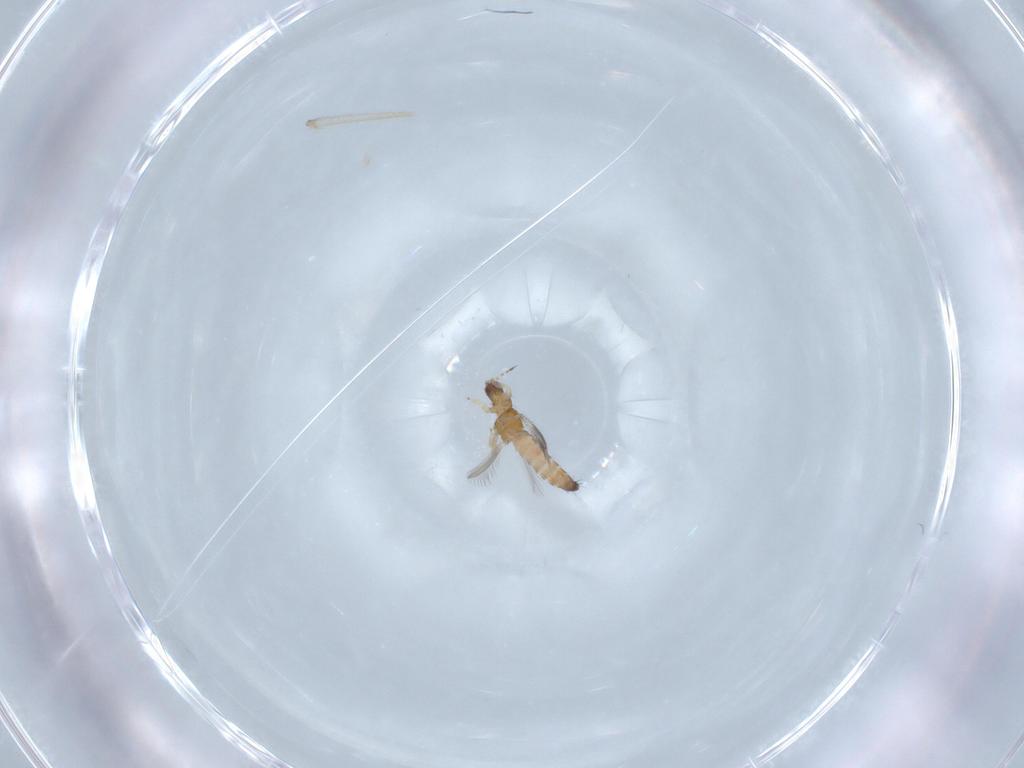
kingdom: Animalia
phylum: Arthropoda
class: Insecta
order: Thysanoptera
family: Thripidae
